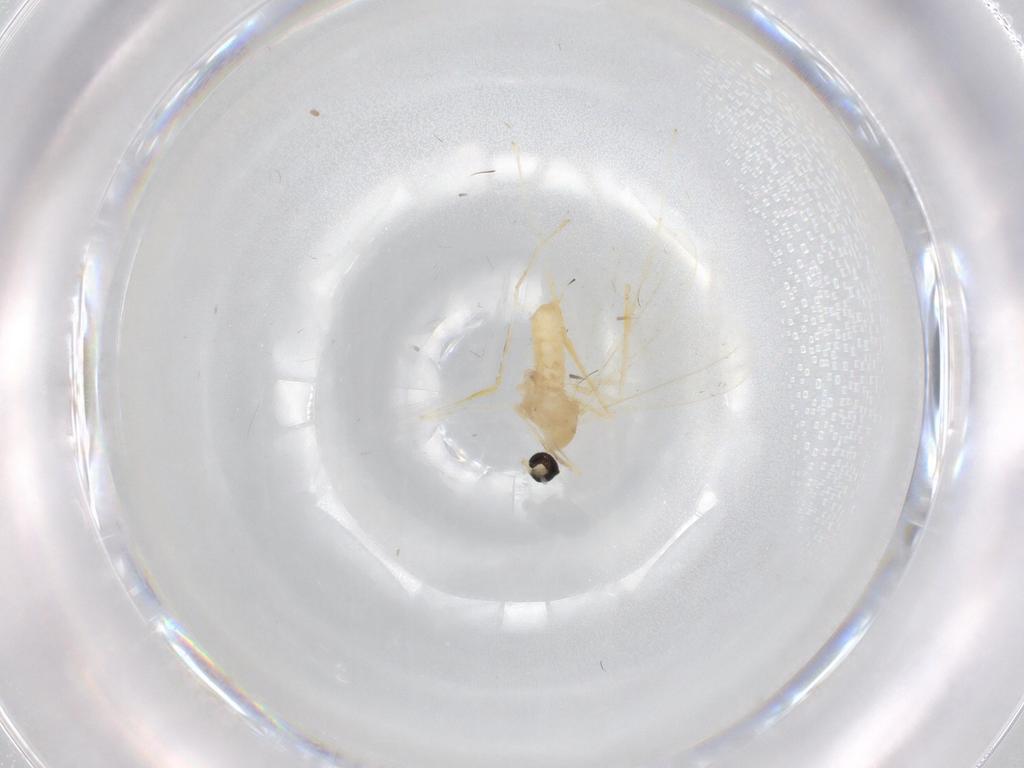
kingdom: Animalia
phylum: Arthropoda
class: Insecta
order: Diptera
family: Cecidomyiidae
